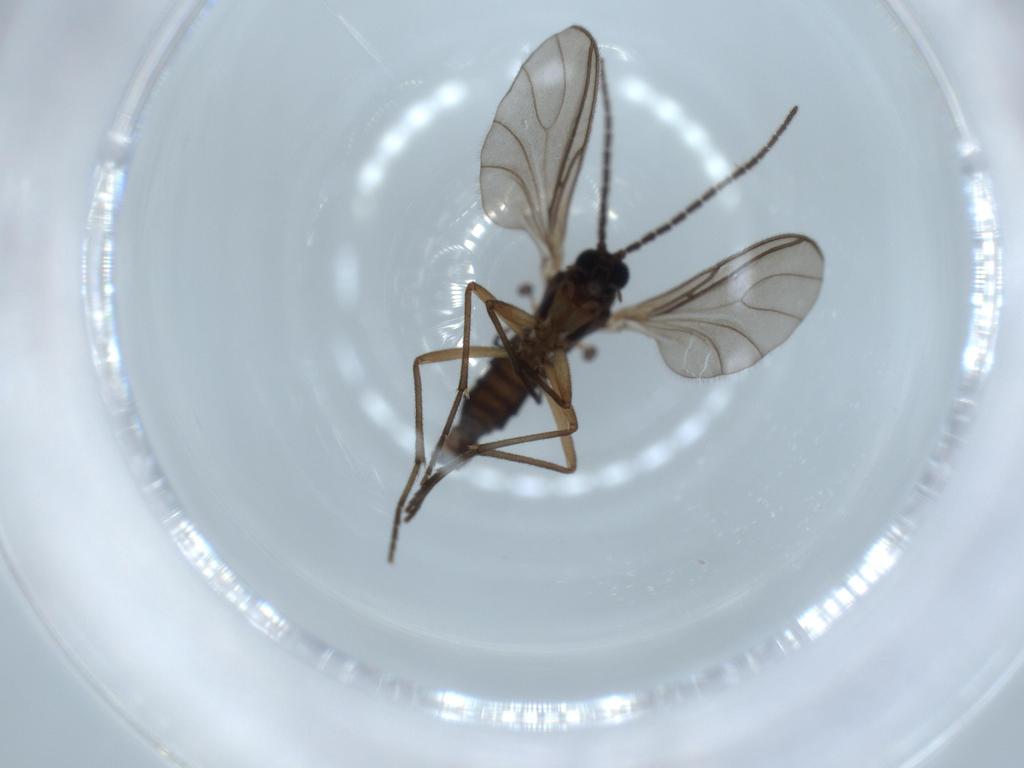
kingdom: Animalia
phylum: Arthropoda
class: Insecta
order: Diptera
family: Sciaridae
